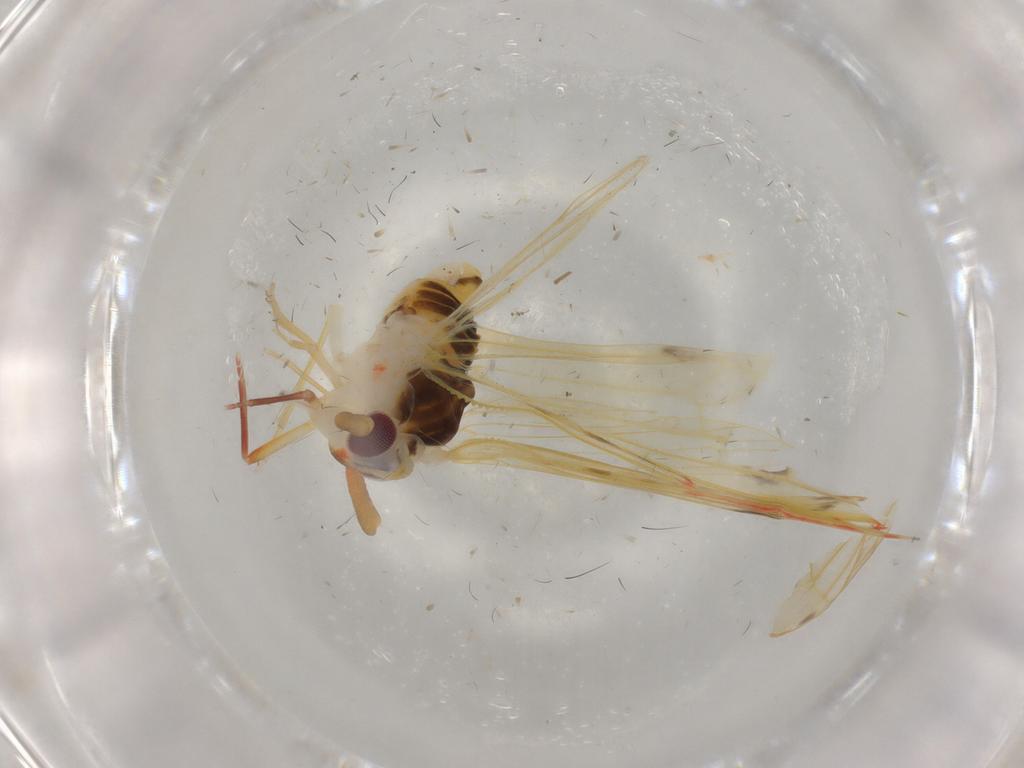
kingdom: Animalia
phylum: Arthropoda
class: Insecta
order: Hymenoptera
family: Dryinidae
